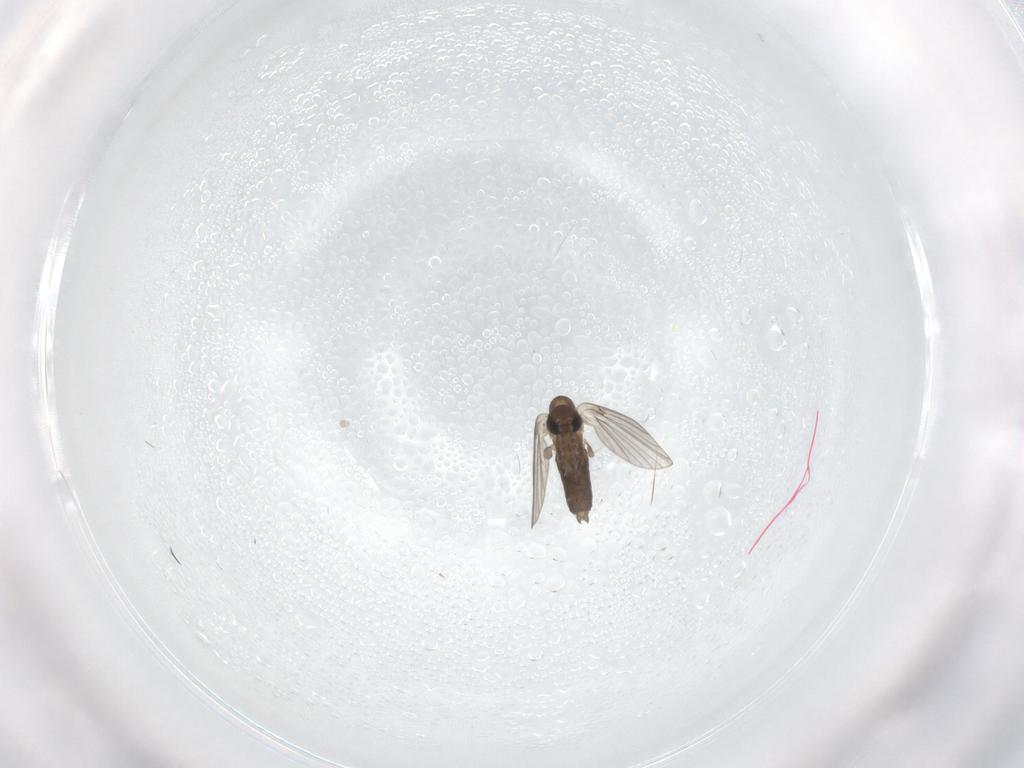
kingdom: Animalia
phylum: Arthropoda
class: Insecta
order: Diptera
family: Psychodidae
